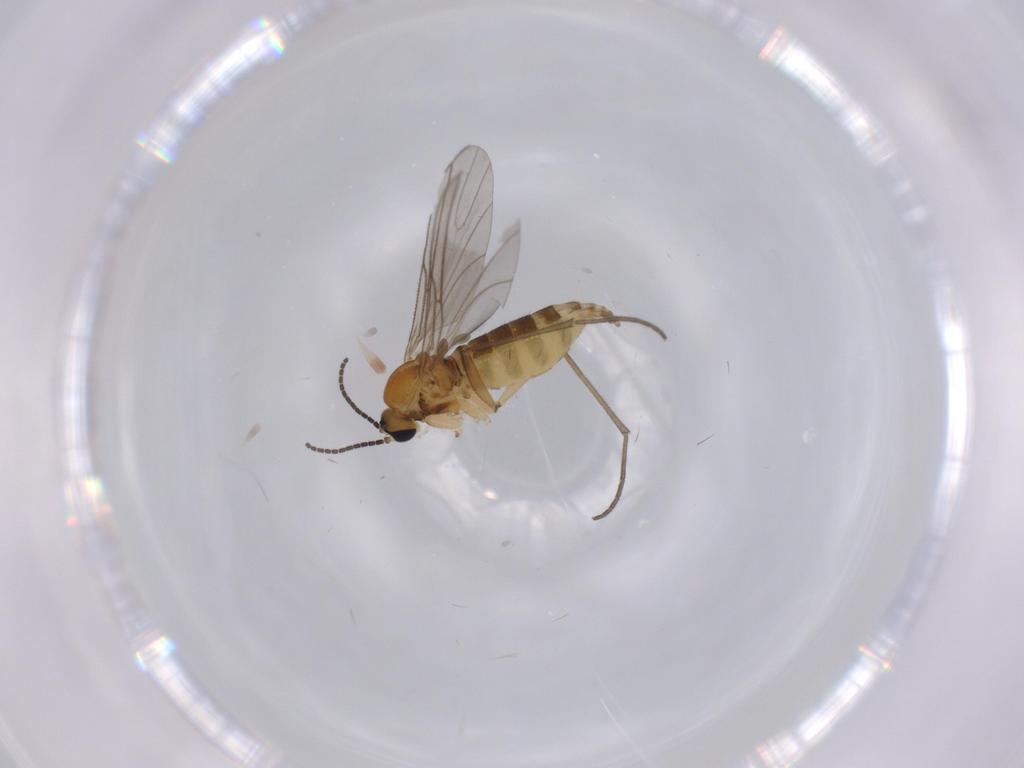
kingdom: Animalia
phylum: Arthropoda
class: Insecta
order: Diptera
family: Sciaridae
